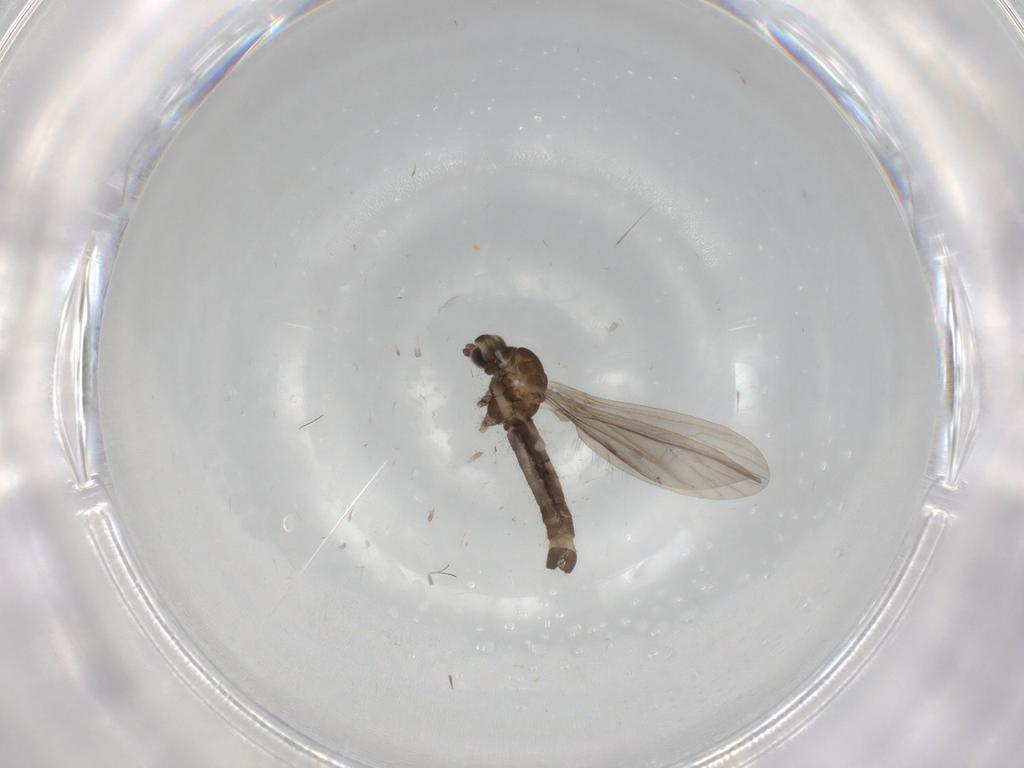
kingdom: Animalia
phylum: Arthropoda
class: Insecta
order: Diptera
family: Limoniidae
